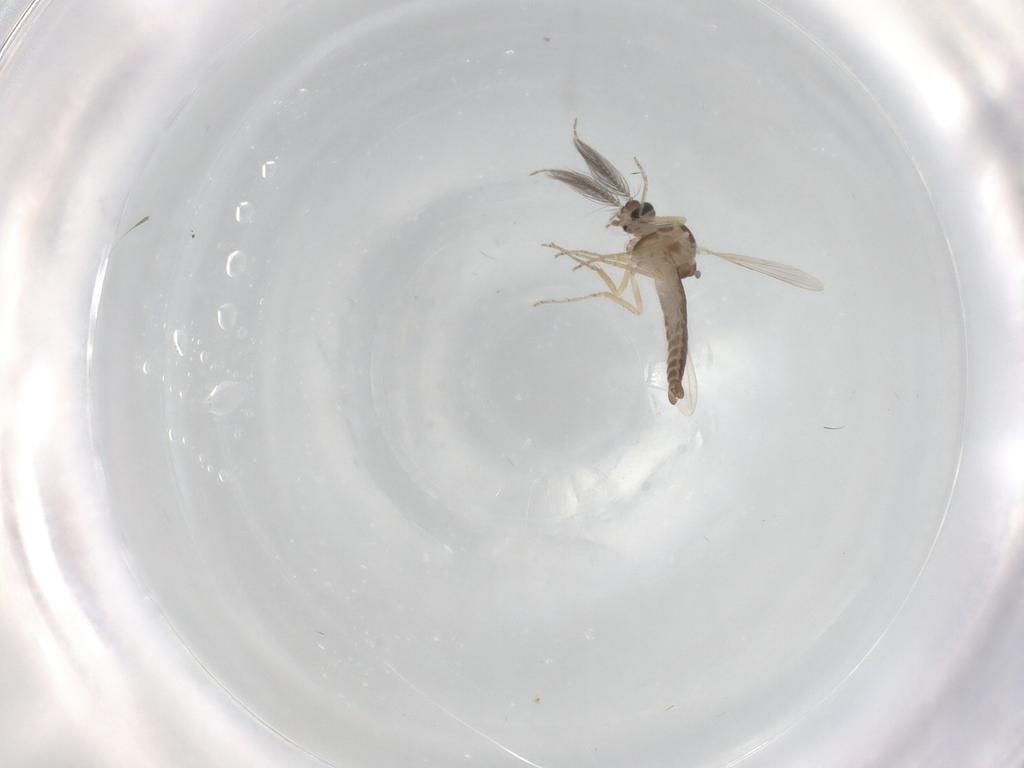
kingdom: Animalia
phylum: Arthropoda
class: Insecta
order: Diptera
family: Ceratopogonidae
